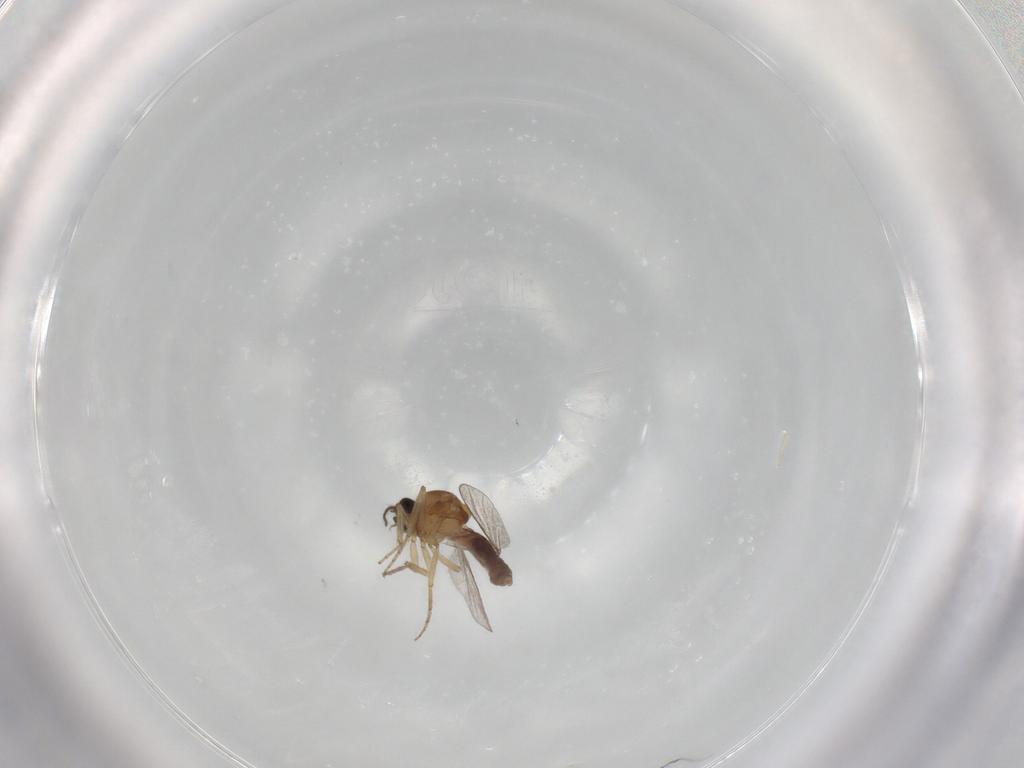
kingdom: Animalia
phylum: Arthropoda
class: Insecta
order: Diptera
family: Ceratopogonidae
